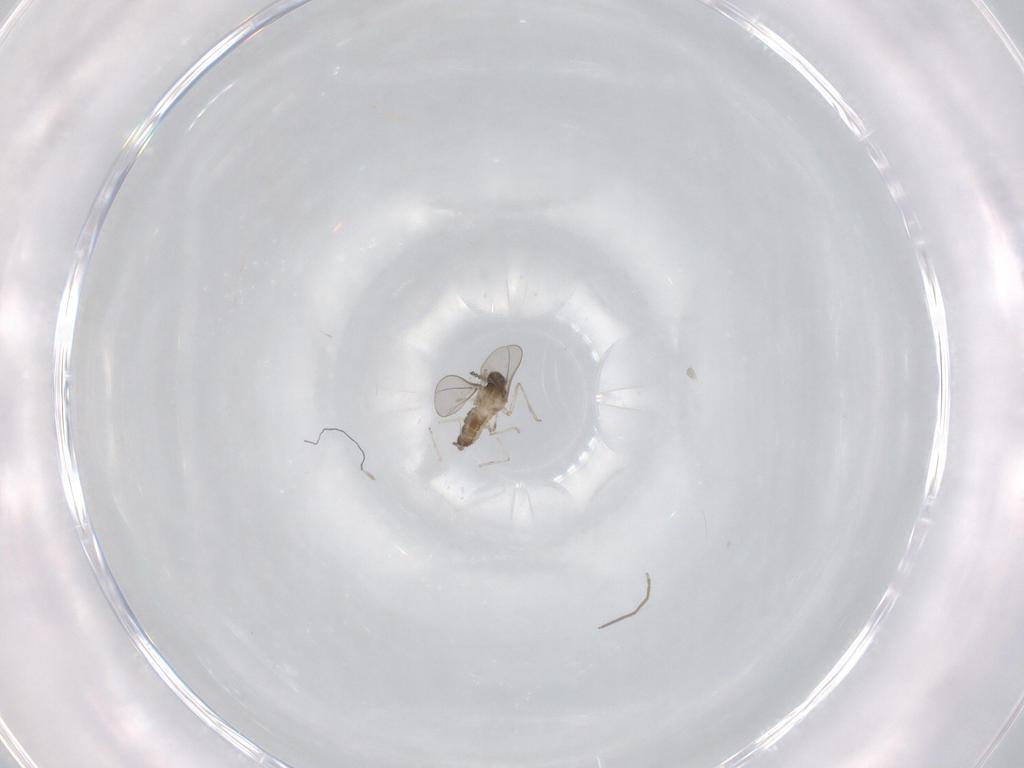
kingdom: Animalia
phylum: Arthropoda
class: Insecta
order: Diptera
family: Cecidomyiidae
